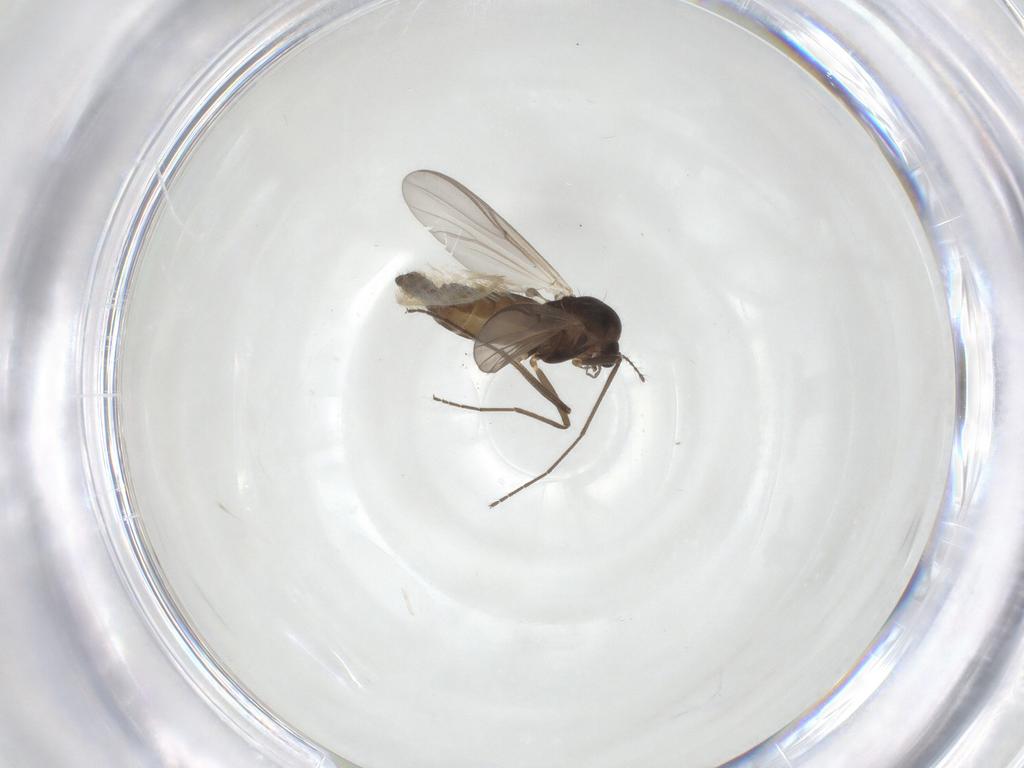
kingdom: Animalia
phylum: Arthropoda
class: Insecta
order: Diptera
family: Chironomidae
